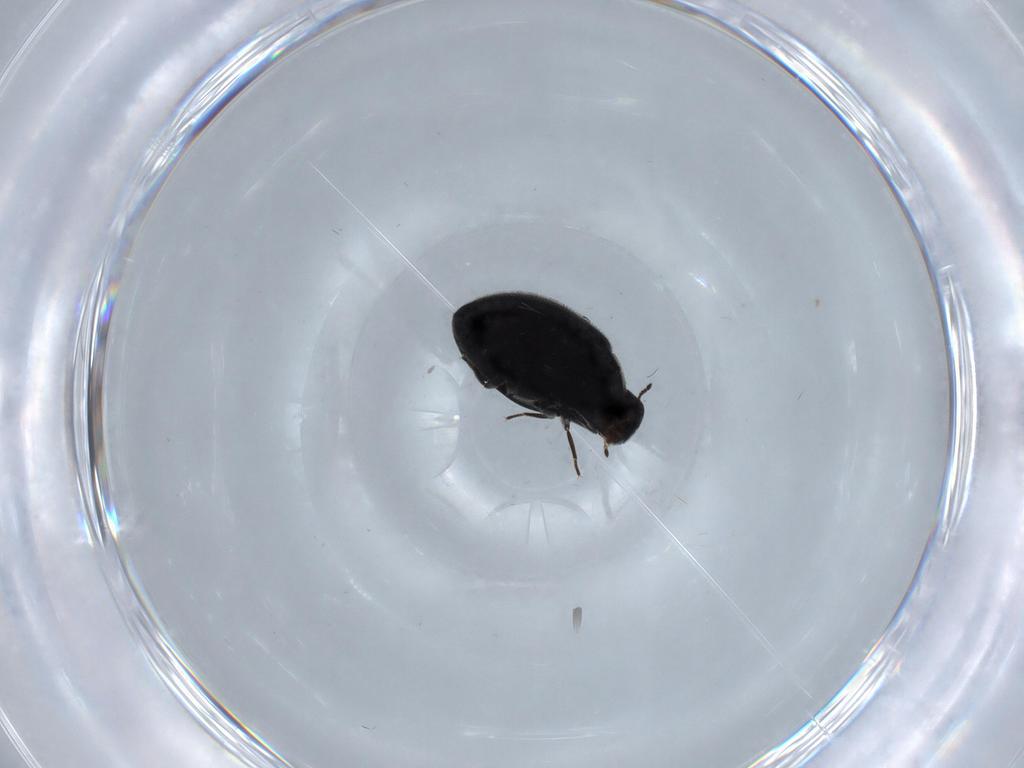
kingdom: Animalia
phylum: Arthropoda
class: Insecta
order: Coleoptera
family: Limnichidae
